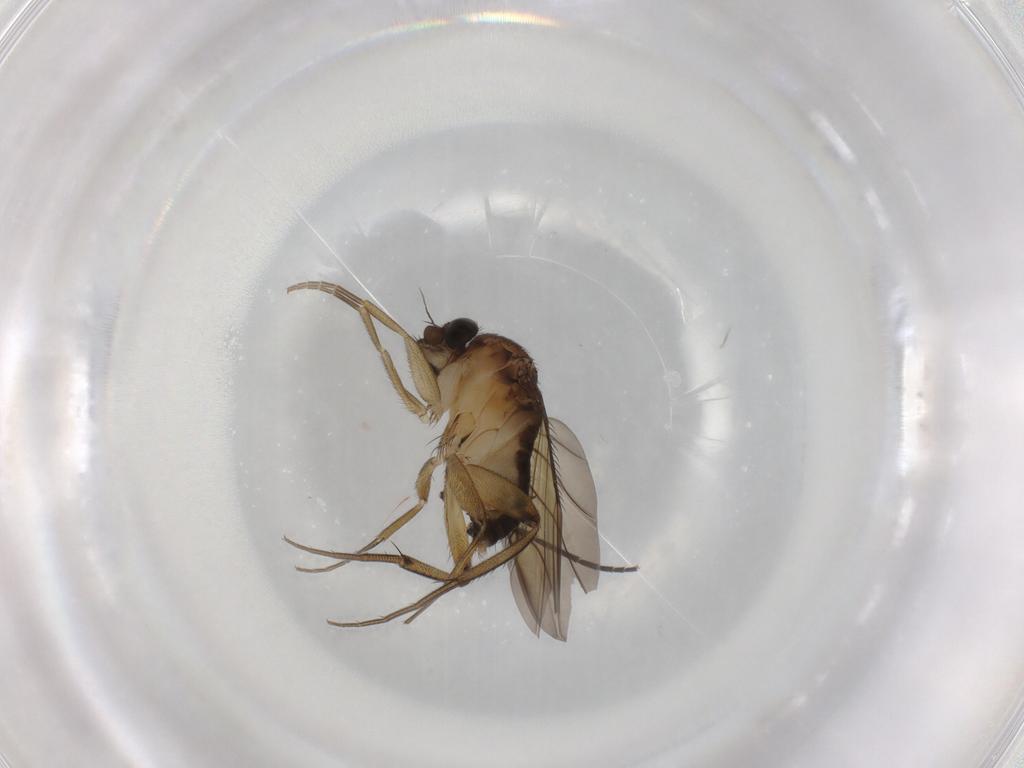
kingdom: Animalia
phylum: Arthropoda
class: Insecta
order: Diptera
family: Phoridae
